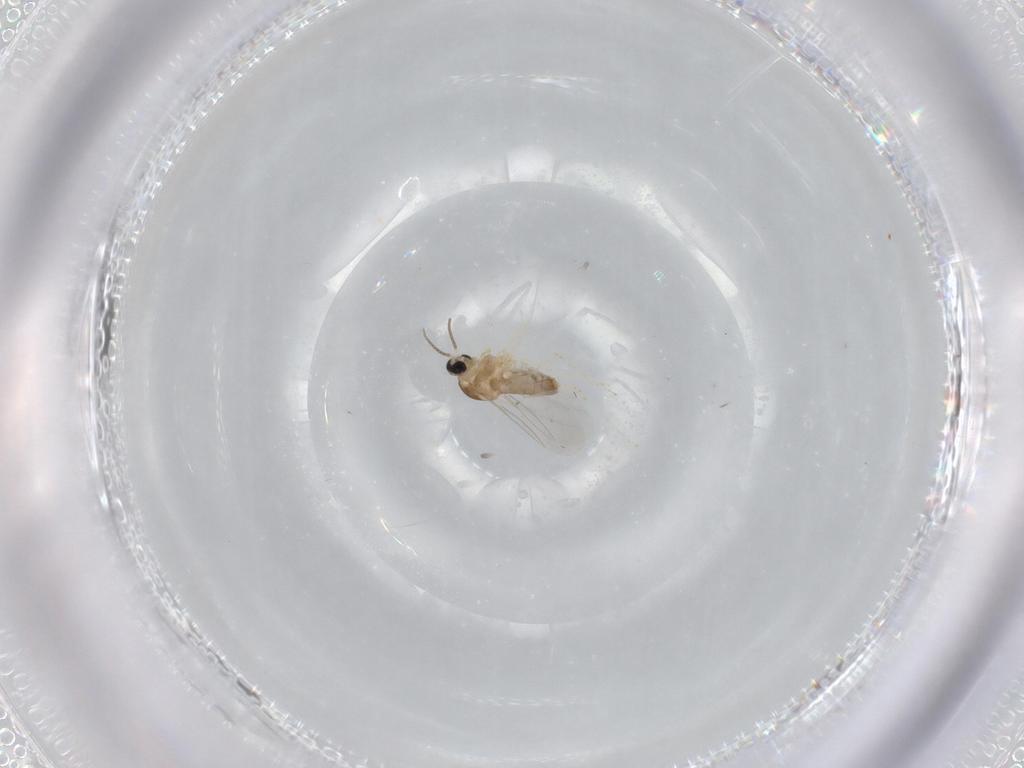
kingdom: Animalia
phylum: Arthropoda
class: Insecta
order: Diptera
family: Cecidomyiidae
